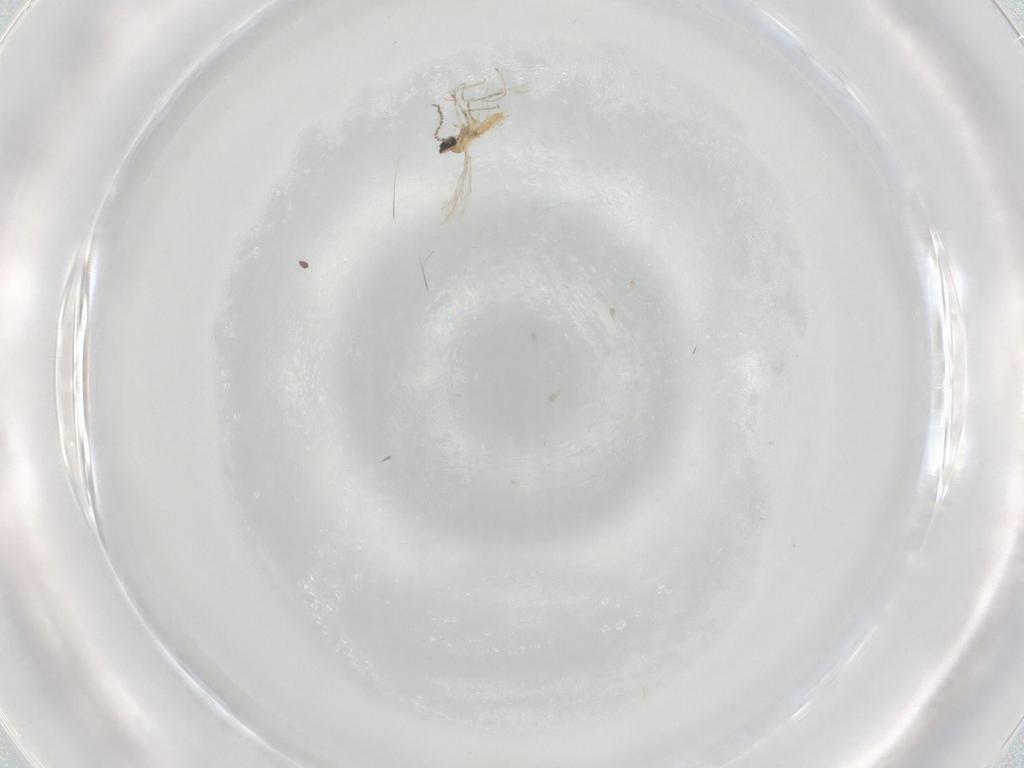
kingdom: Animalia
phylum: Arthropoda
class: Insecta
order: Diptera
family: Cecidomyiidae
